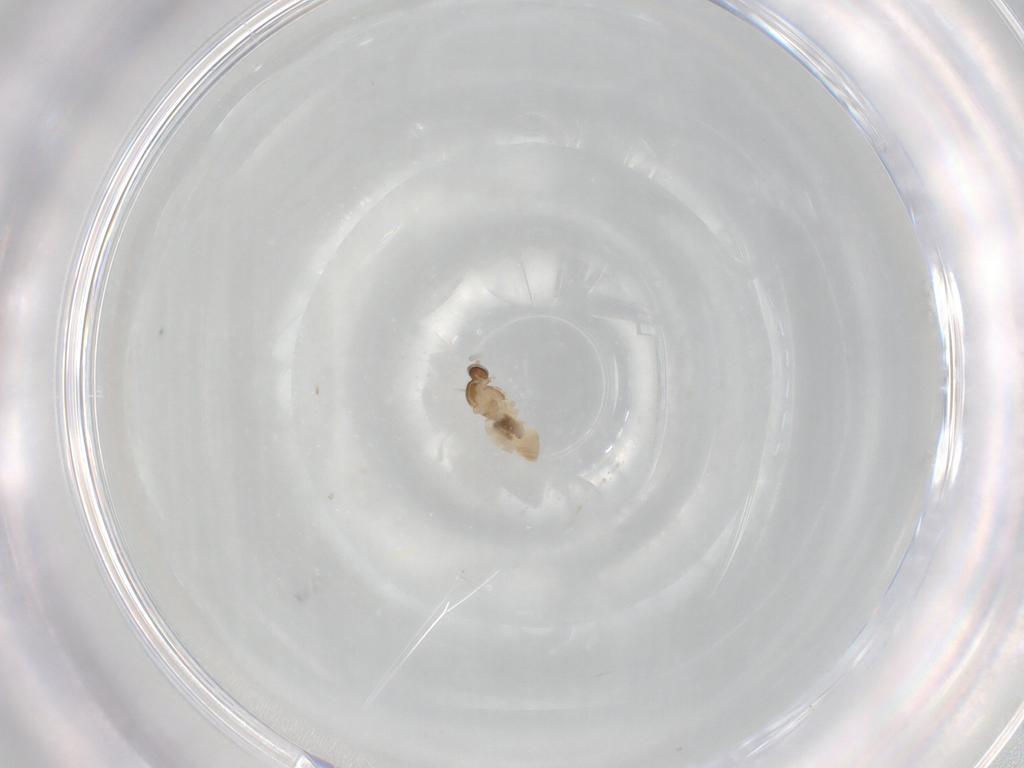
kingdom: Animalia
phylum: Arthropoda
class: Insecta
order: Diptera
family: Cecidomyiidae
